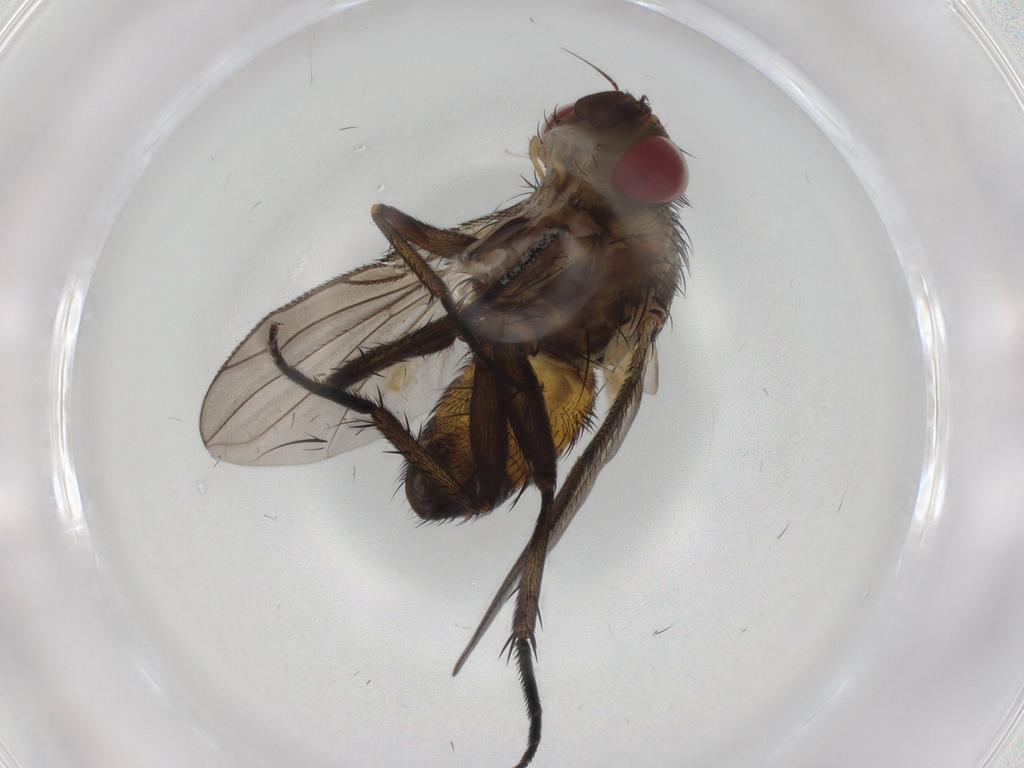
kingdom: Animalia
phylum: Arthropoda
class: Insecta
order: Diptera
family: Tachinidae
